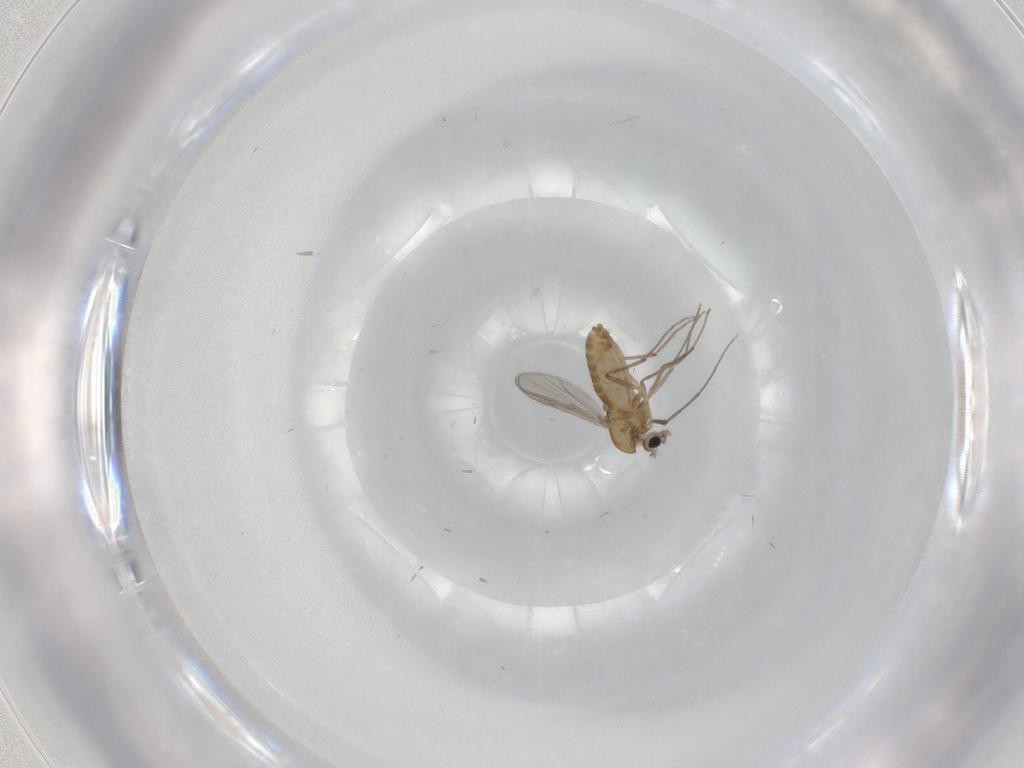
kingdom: Animalia
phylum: Arthropoda
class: Insecta
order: Diptera
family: Chironomidae
